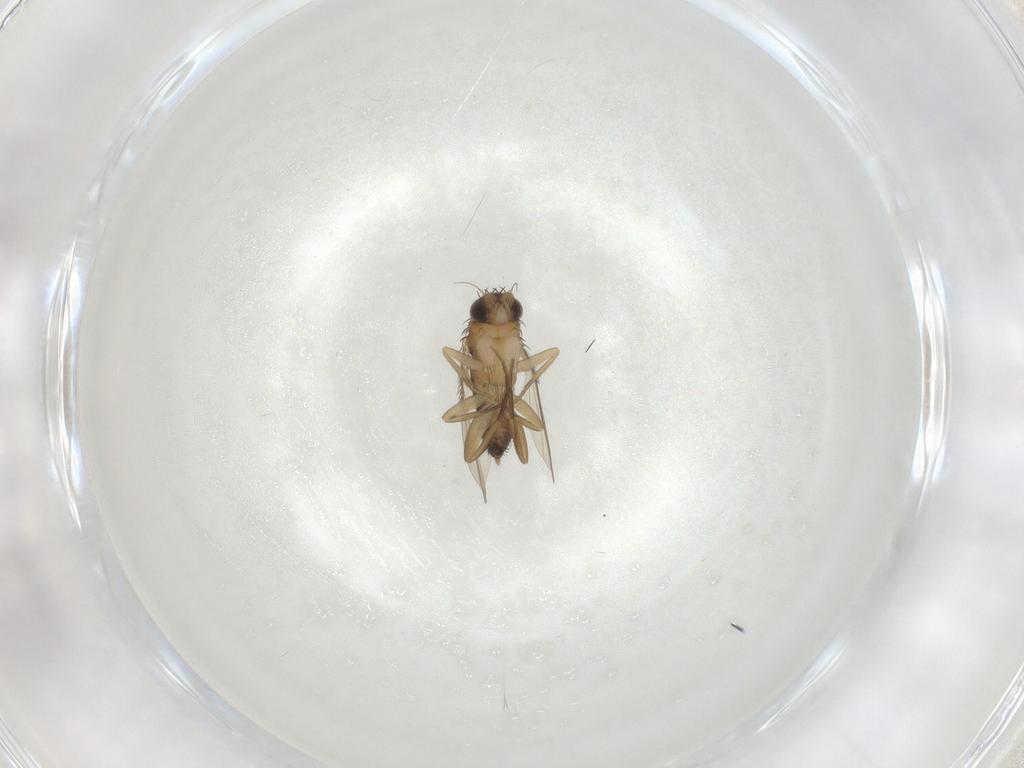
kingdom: Animalia
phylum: Arthropoda
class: Insecta
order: Diptera
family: Phoridae
